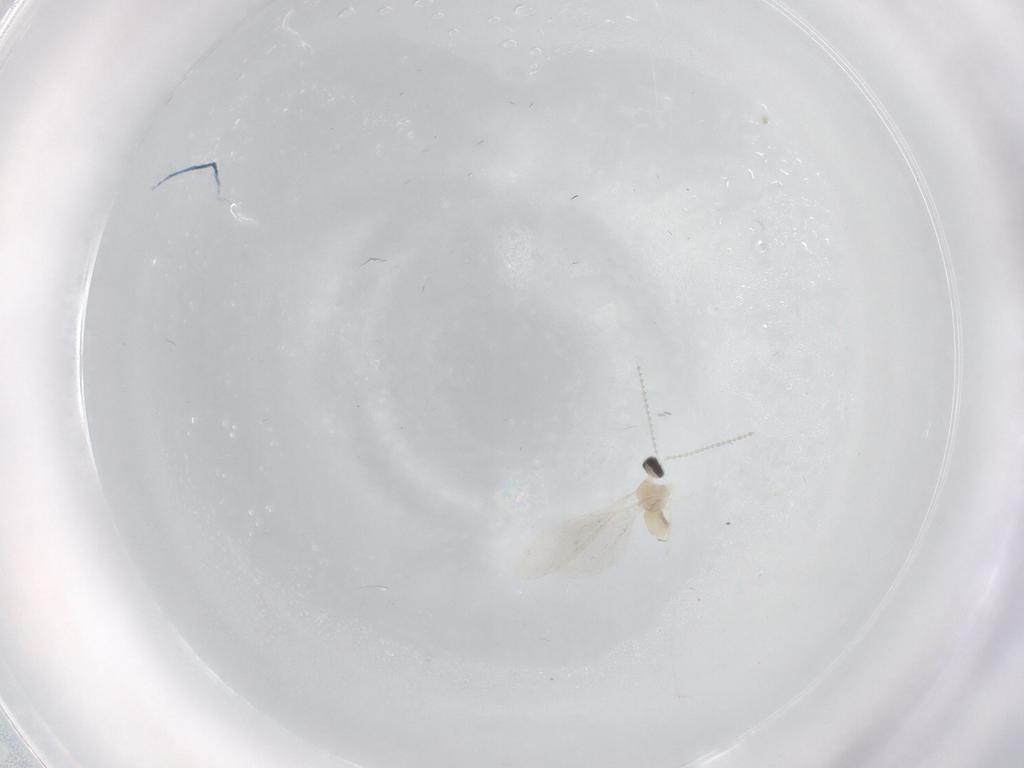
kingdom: Animalia
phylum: Arthropoda
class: Insecta
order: Diptera
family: Cecidomyiidae
